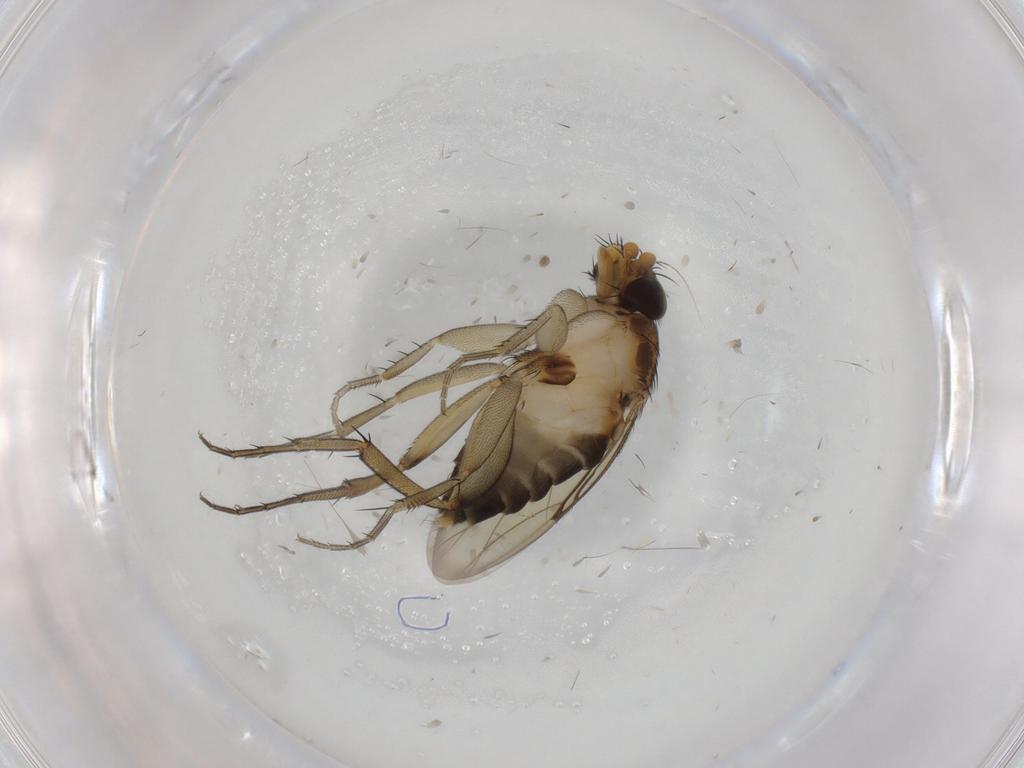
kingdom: Animalia
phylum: Arthropoda
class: Insecta
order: Diptera
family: Phoridae
